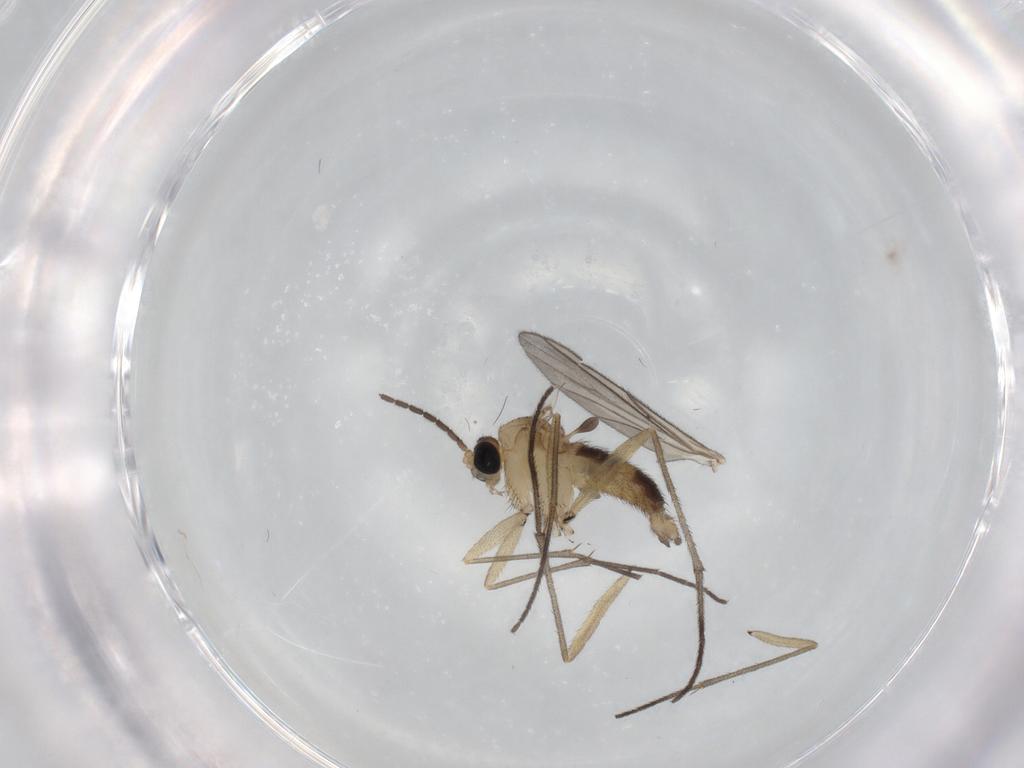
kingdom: Animalia
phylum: Arthropoda
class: Insecta
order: Diptera
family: Sciaridae
